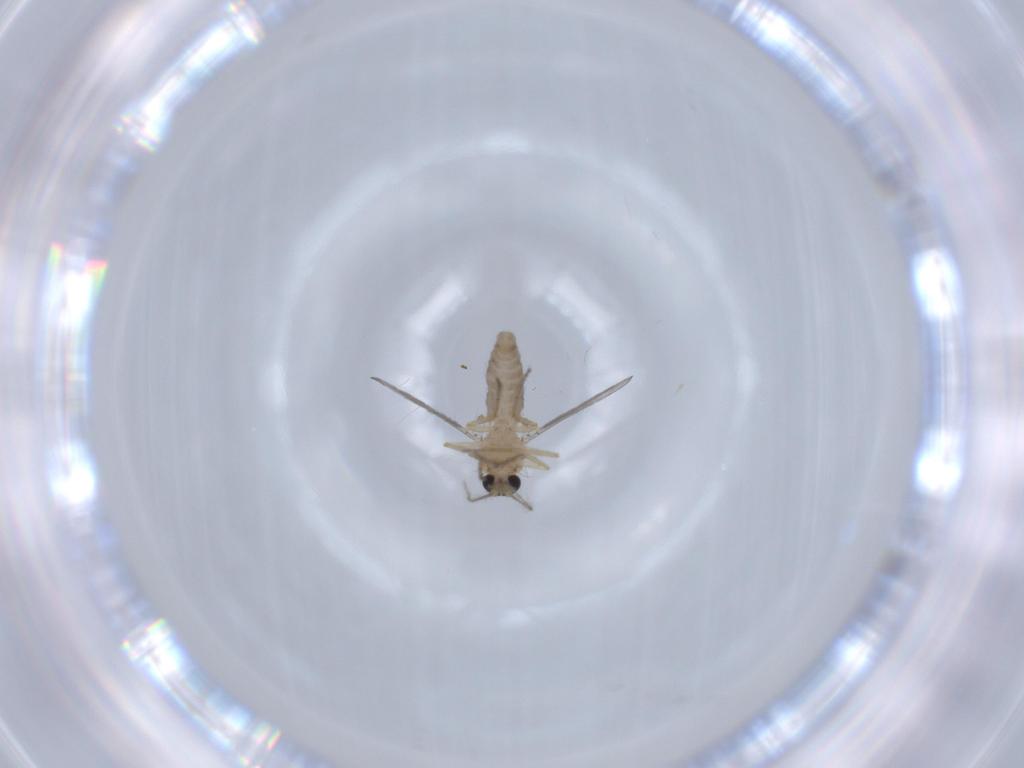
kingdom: Animalia
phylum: Arthropoda
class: Insecta
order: Diptera
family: Ceratopogonidae
